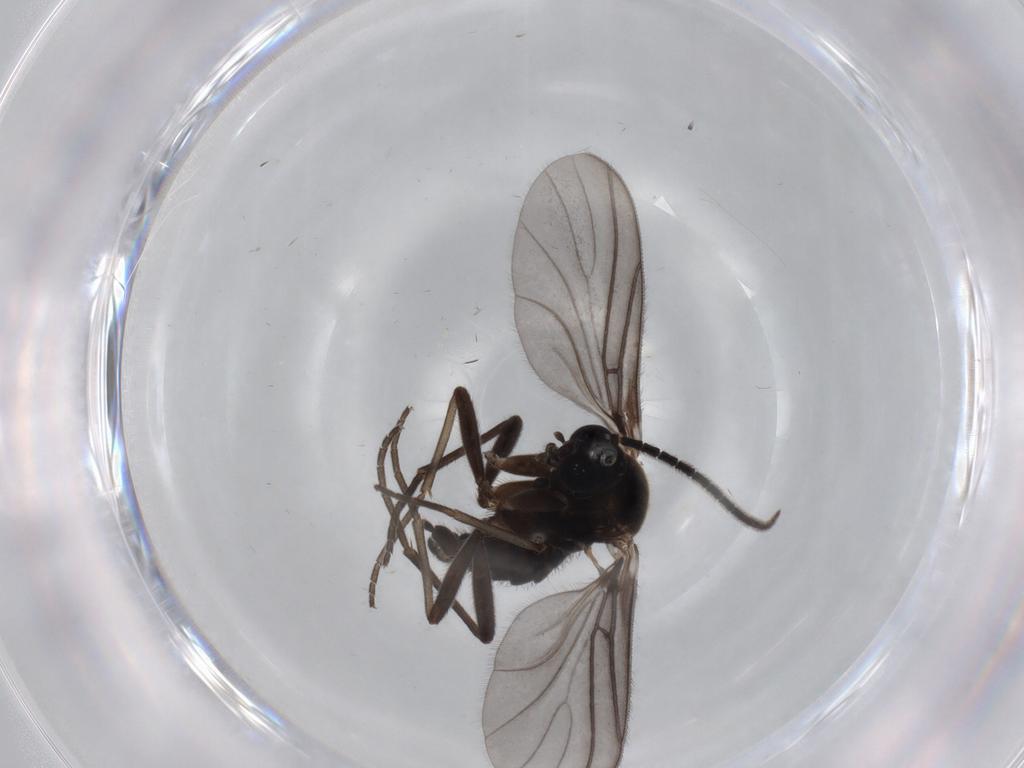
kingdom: Animalia
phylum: Arthropoda
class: Insecta
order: Diptera
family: Sciaridae
